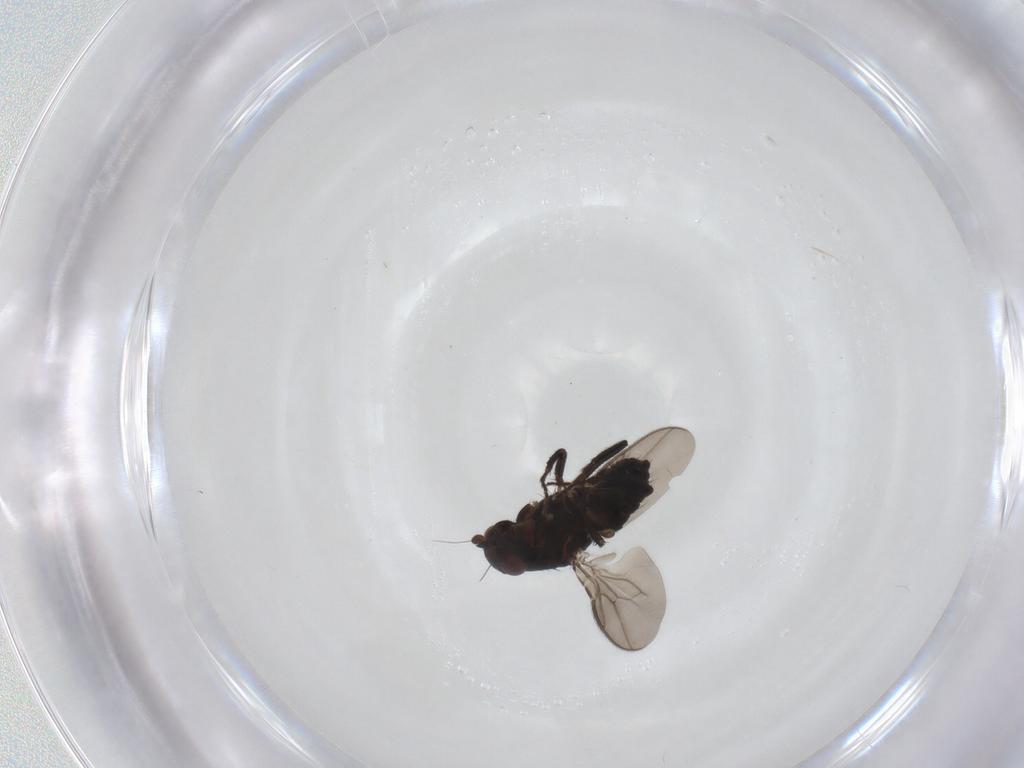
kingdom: Animalia
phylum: Arthropoda
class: Insecta
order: Diptera
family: Sphaeroceridae
